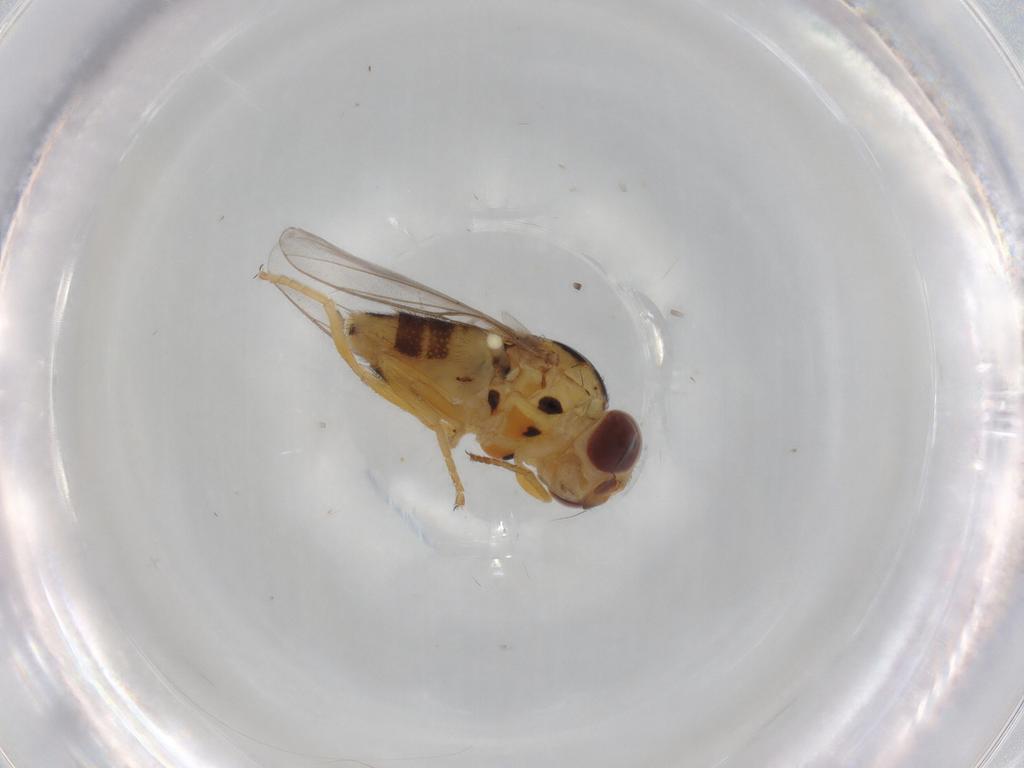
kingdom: Animalia
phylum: Arthropoda
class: Insecta
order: Diptera
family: Chloropidae
